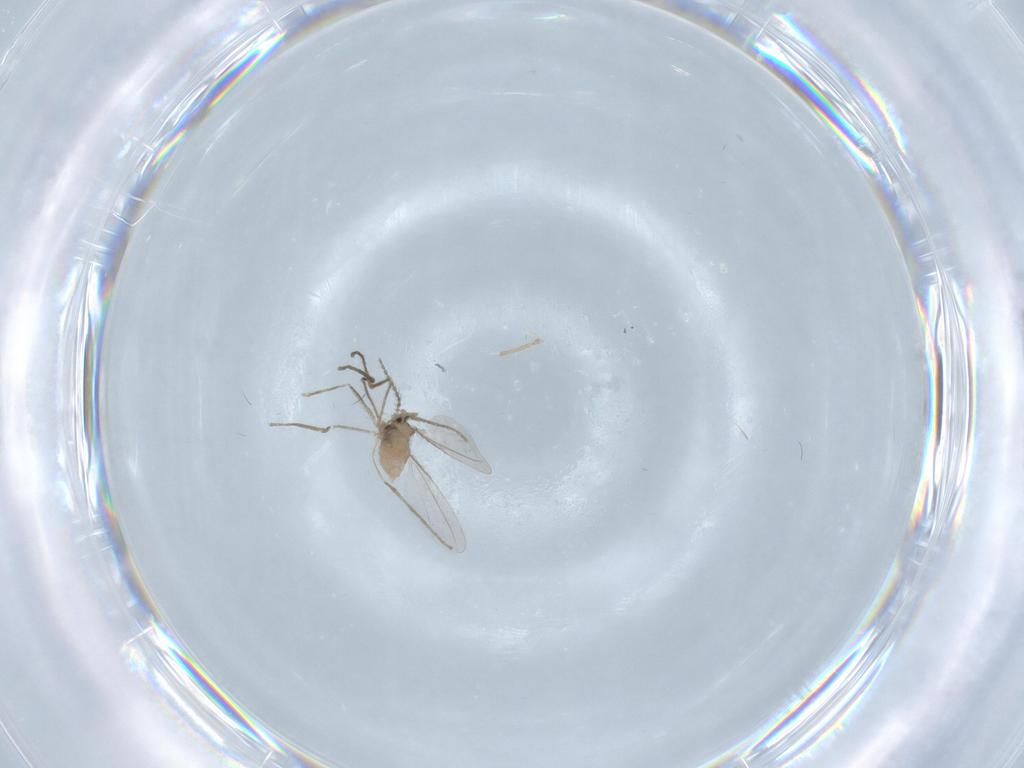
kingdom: Animalia
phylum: Arthropoda
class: Insecta
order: Diptera
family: Cecidomyiidae
